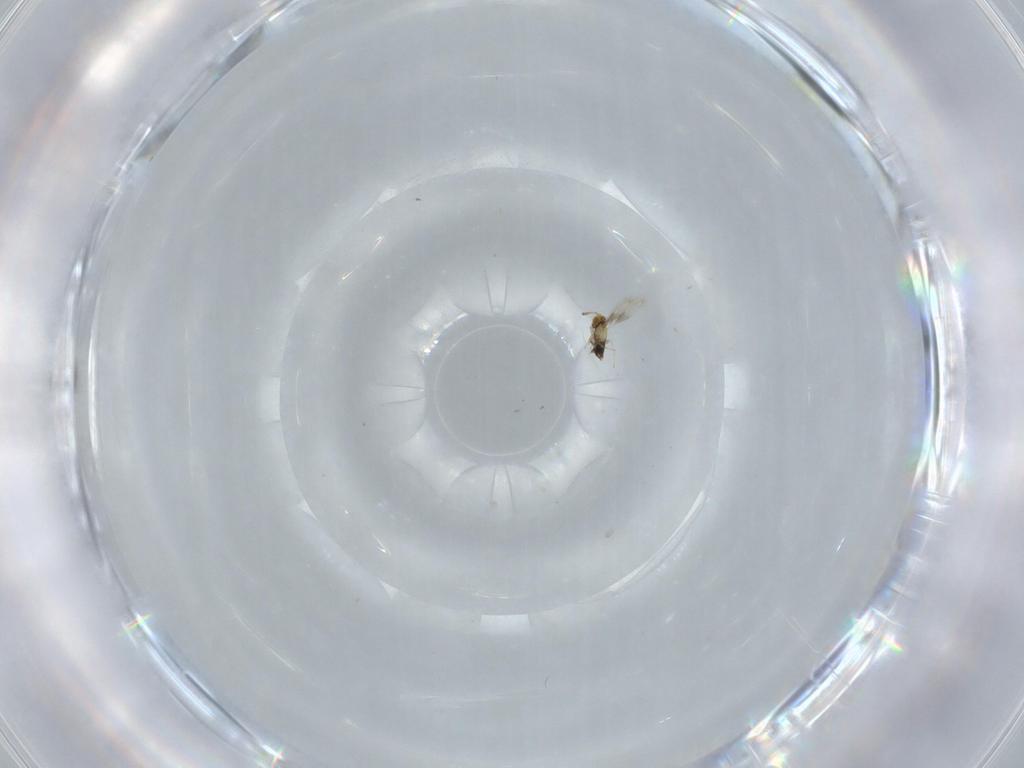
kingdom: Animalia
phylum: Arthropoda
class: Insecta
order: Hymenoptera
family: Aphelinidae
